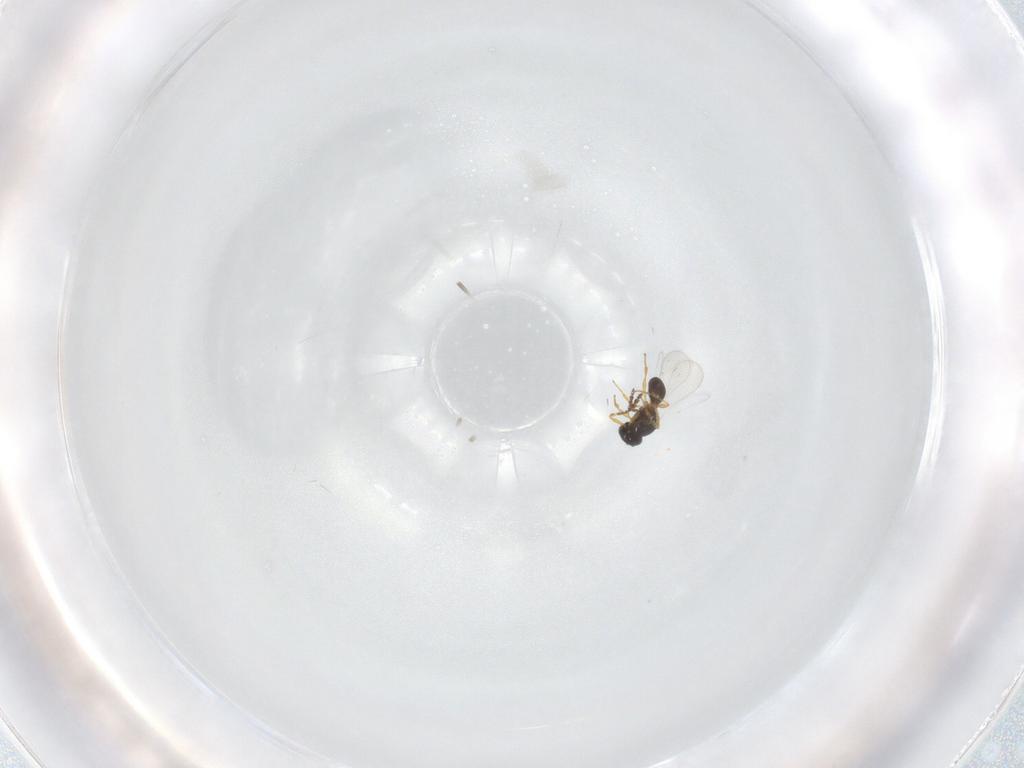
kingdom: Animalia
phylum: Arthropoda
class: Insecta
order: Hymenoptera
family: Platygastridae
